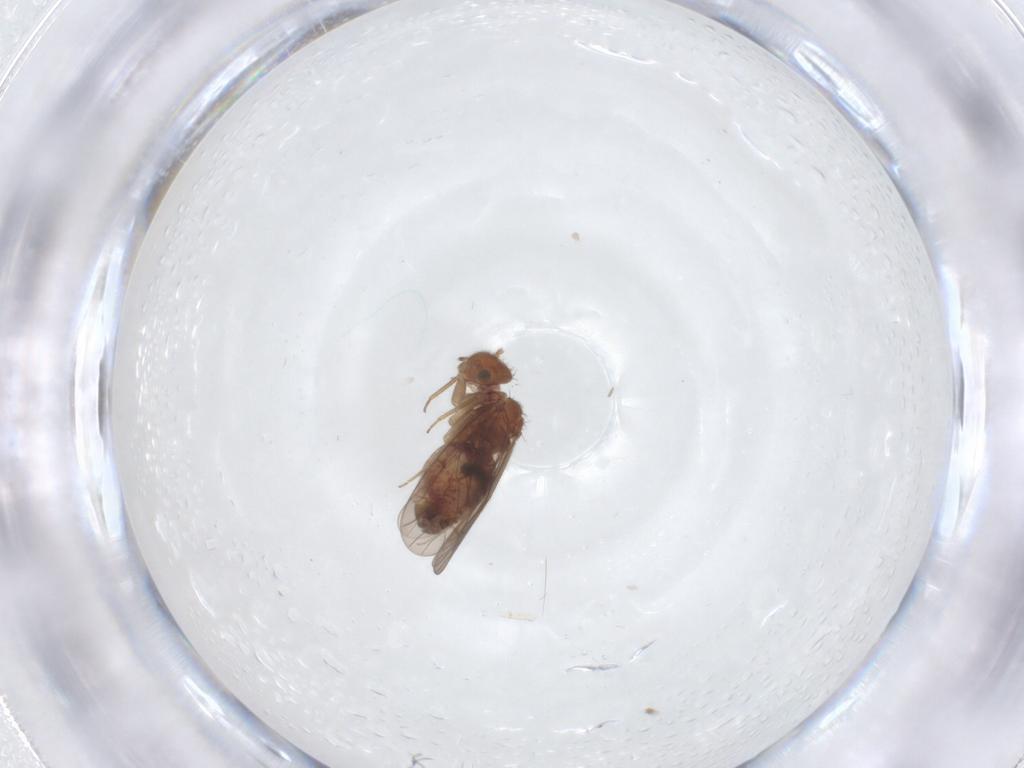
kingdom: Animalia
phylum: Arthropoda
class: Insecta
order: Psocodea
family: Ectopsocidae
